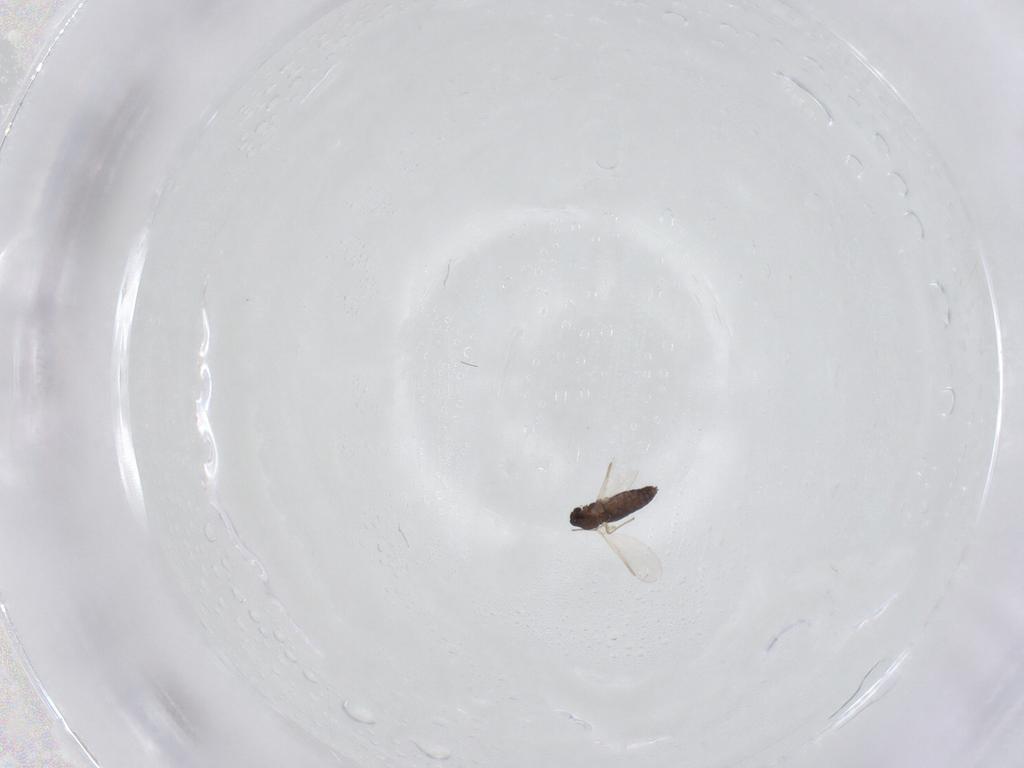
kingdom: Animalia
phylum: Arthropoda
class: Insecta
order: Diptera
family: Chironomidae
